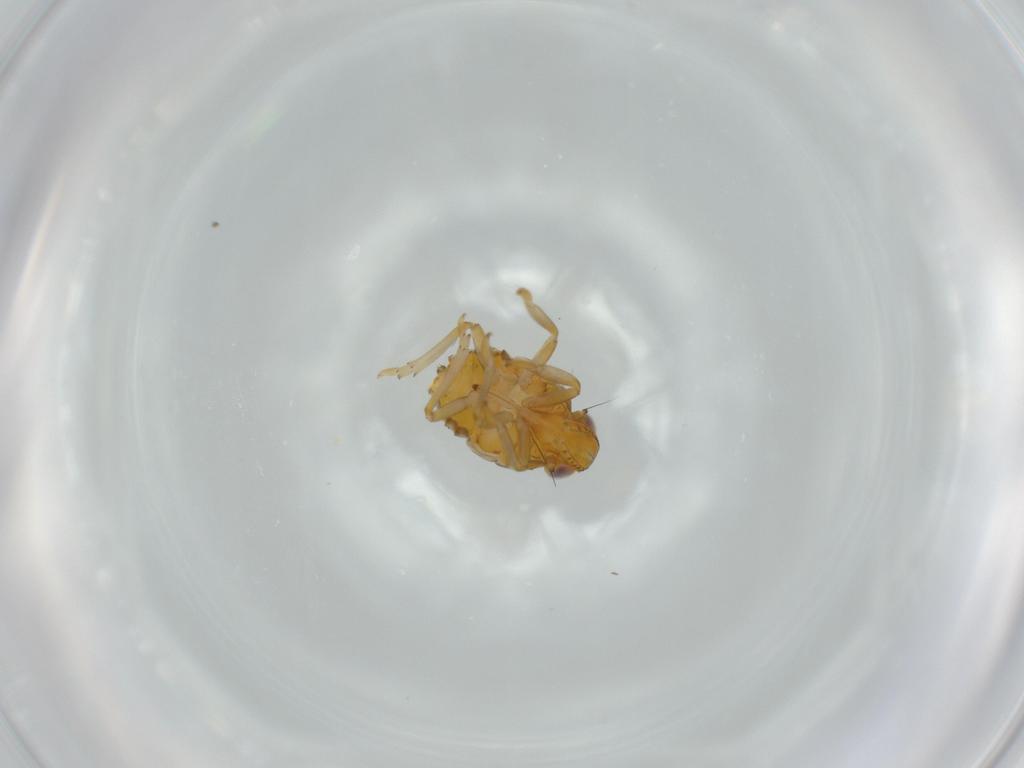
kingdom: Animalia
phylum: Arthropoda
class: Insecta
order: Hemiptera
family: Issidae
